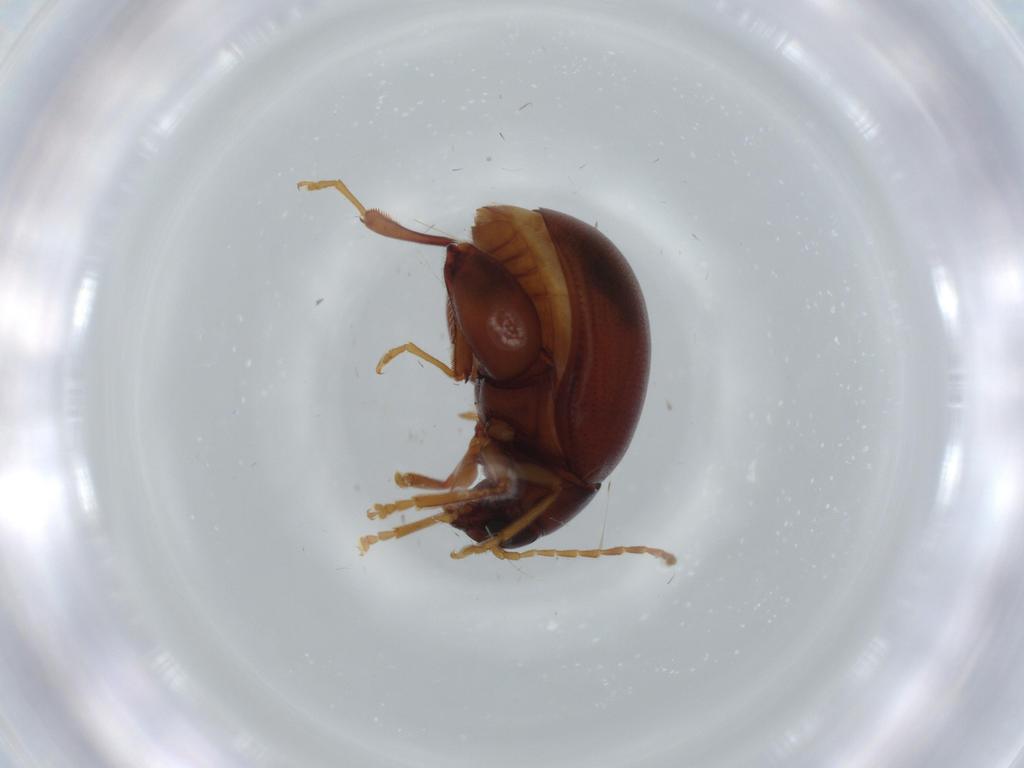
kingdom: Animalia
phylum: Arthropoda
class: Insecta
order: Coleoptera
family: Chrysomelidae
